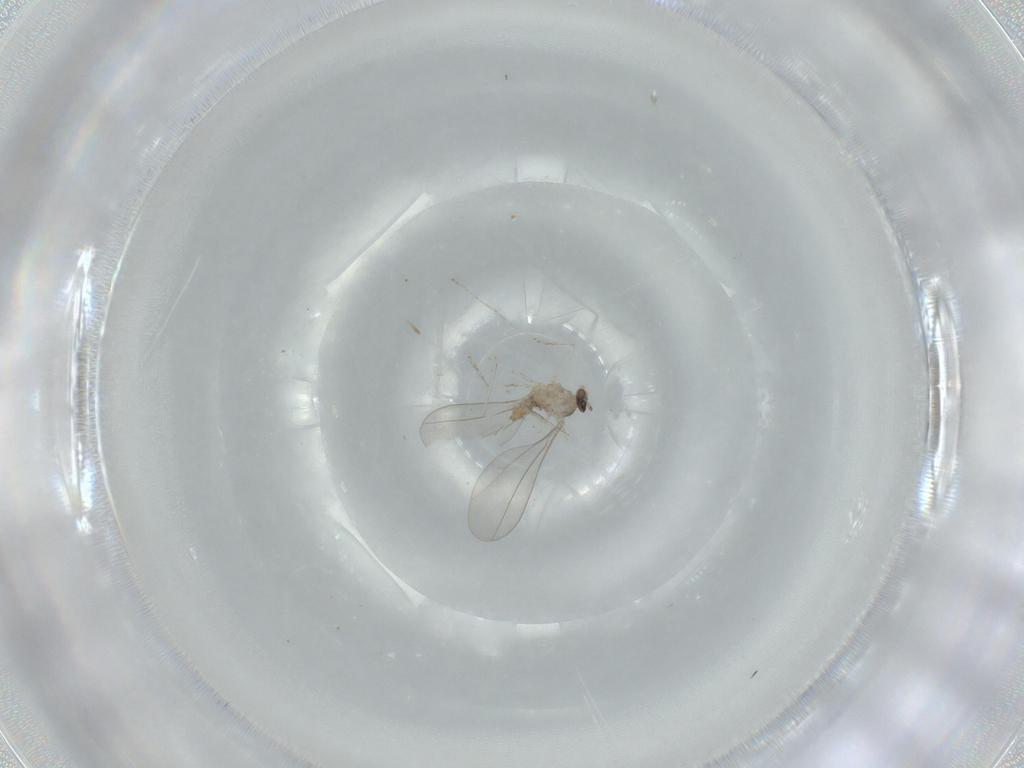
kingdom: Animalia
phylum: Arthropoda
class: Insecta
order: Diptera
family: Cecidomyiidae
